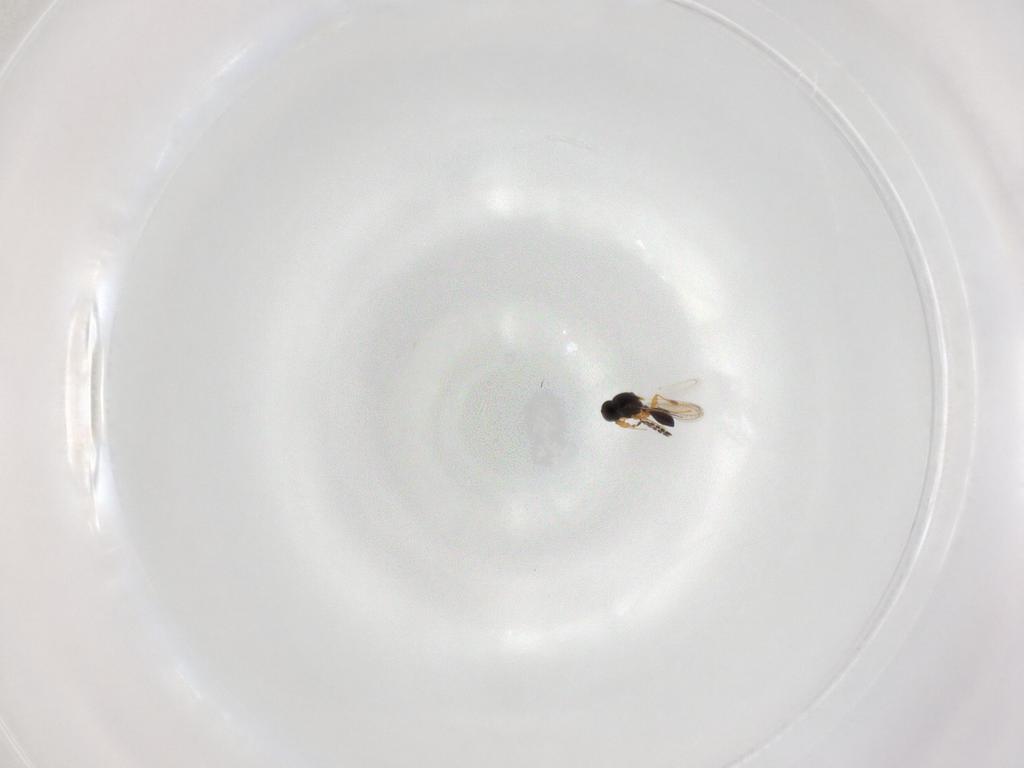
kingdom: Animalia
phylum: Arthropoda
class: Insecta
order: Hymenoptera
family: Platygastridae
